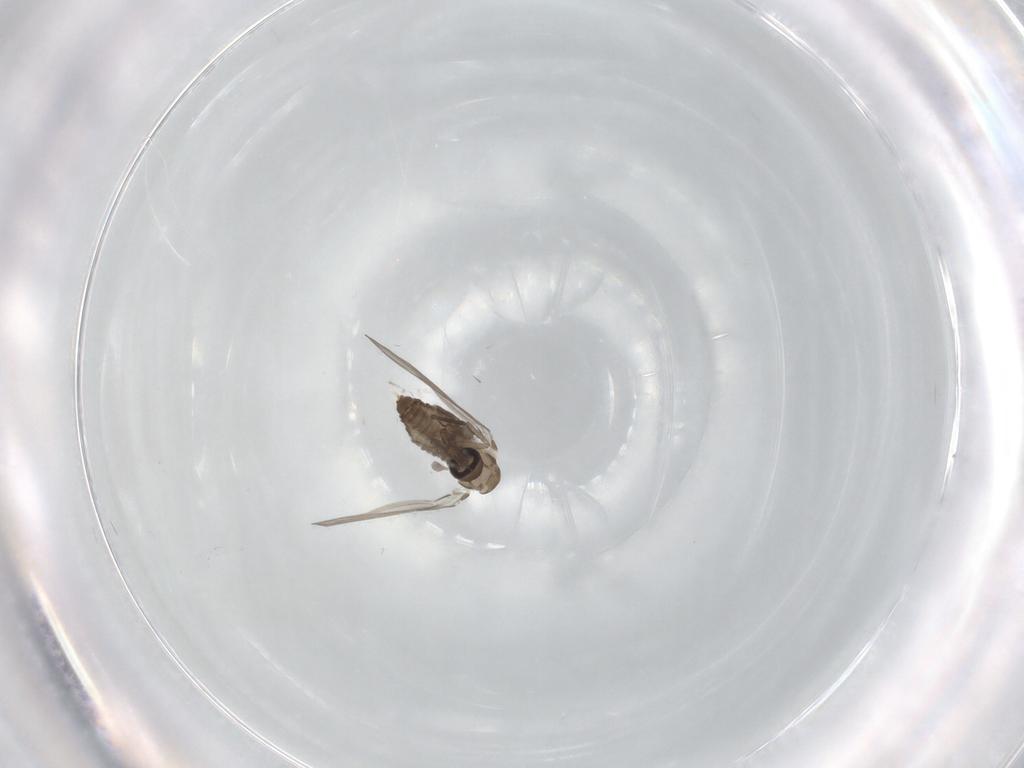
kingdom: Animalia
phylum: Arthropoda
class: Insecta
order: Diptera
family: Psychodidae
